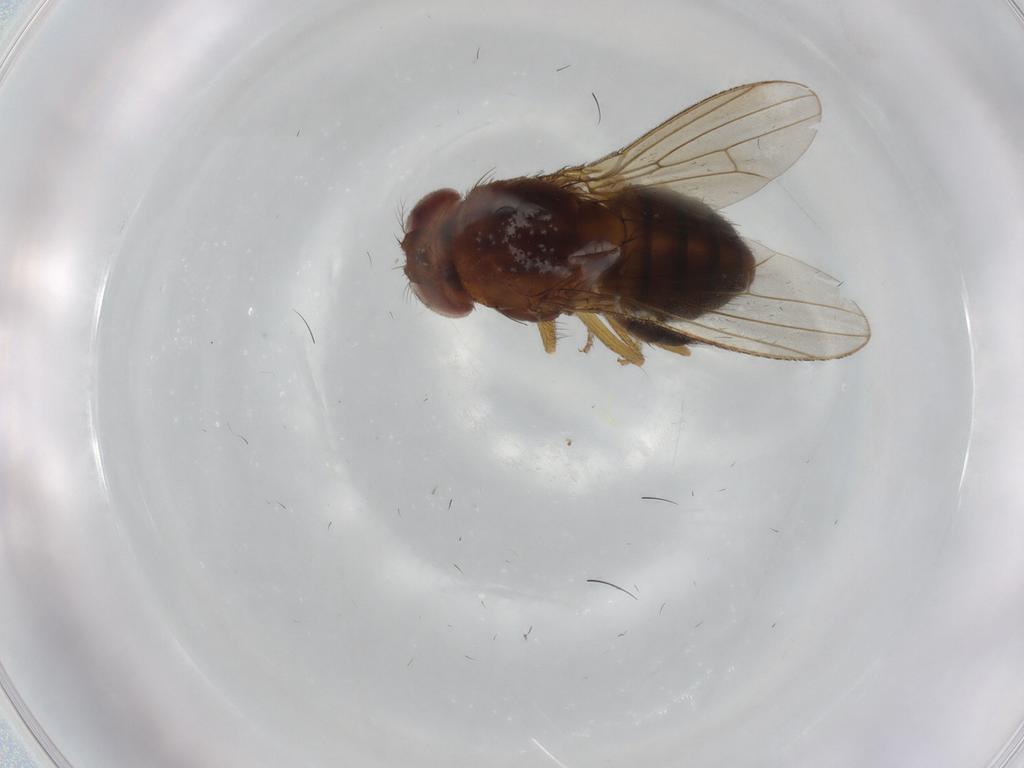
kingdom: Animalia
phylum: Arthropoda
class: Insecta
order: Diptera
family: Drosophilidae
